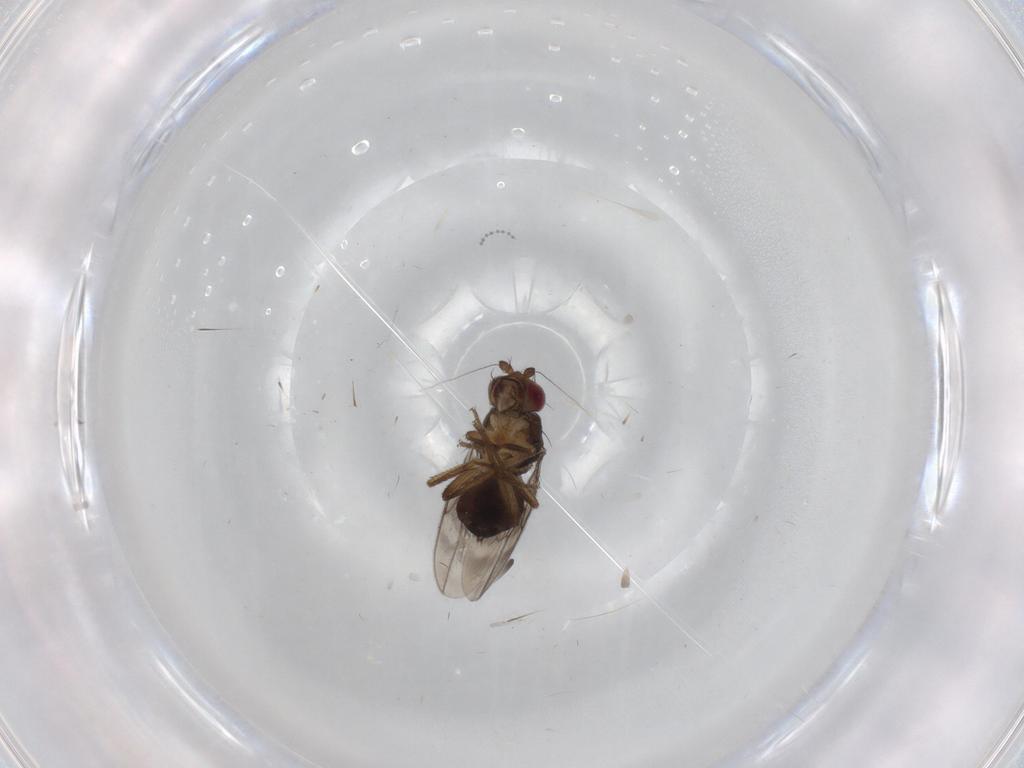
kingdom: Animalia
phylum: Arthropoda
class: Insecta
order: Diptera
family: Sphaeroceridae
